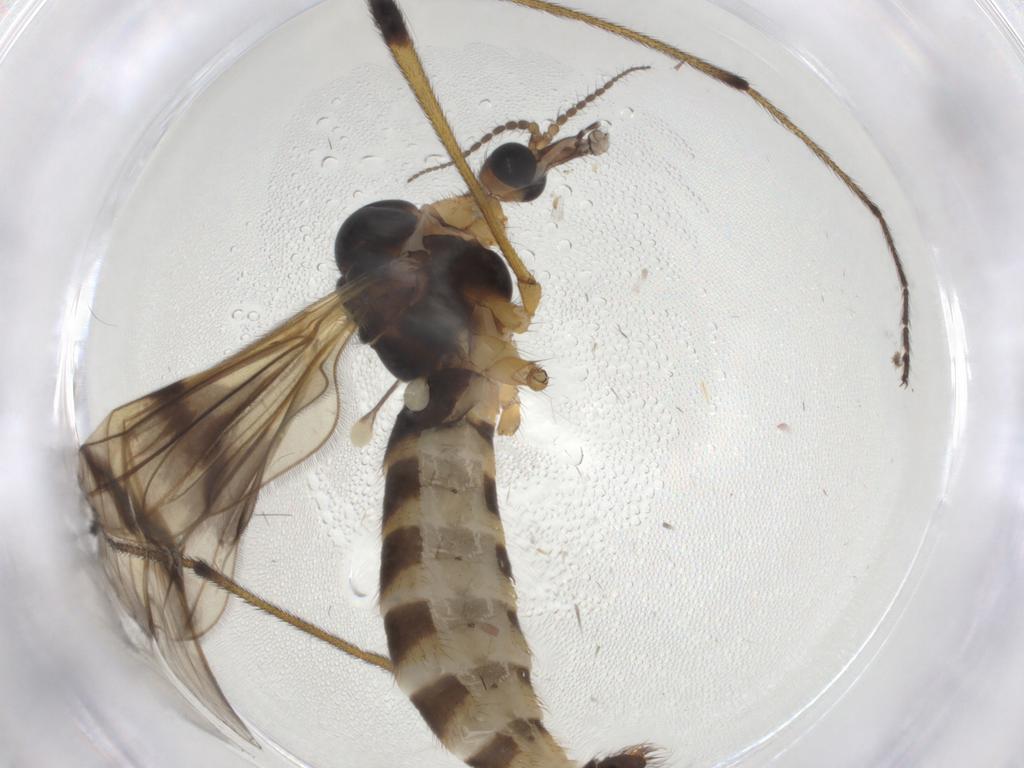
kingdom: Animalia
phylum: Arthropoda
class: Insecta
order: Diptera
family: Limoniidae
